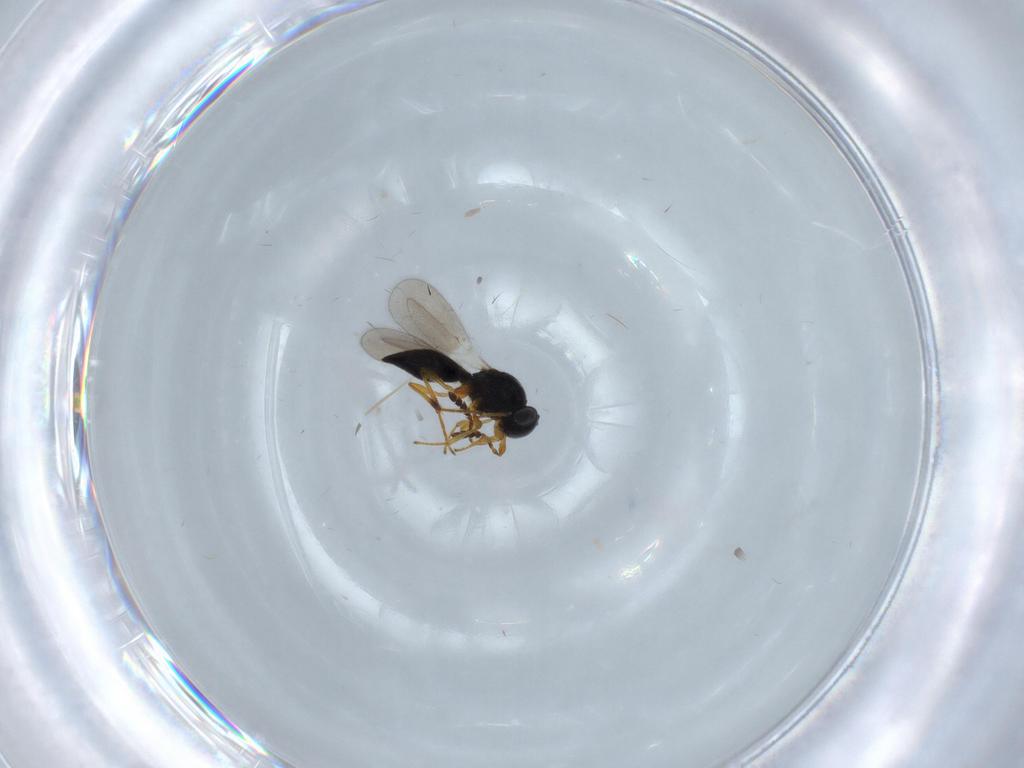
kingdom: Animalia
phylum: Arthropoda
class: Insecta
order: Hymenoptera
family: Platygastridae
